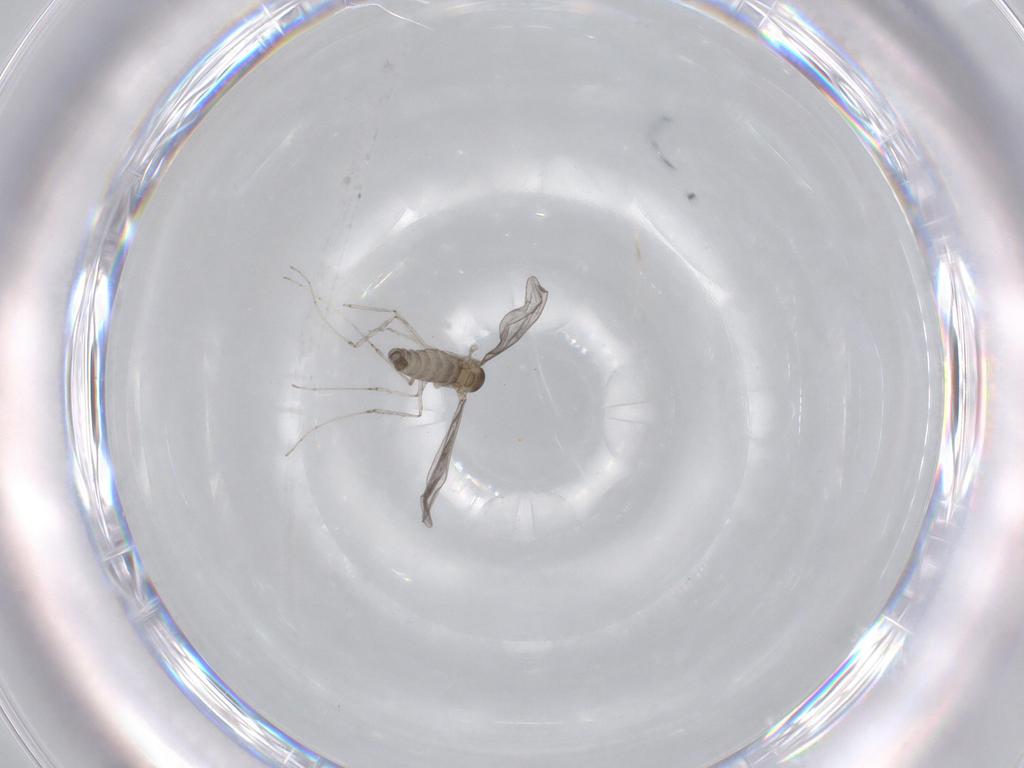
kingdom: Animalia
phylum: Arthropoda
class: Insecta
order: Diptera
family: Cecidomyiidae
